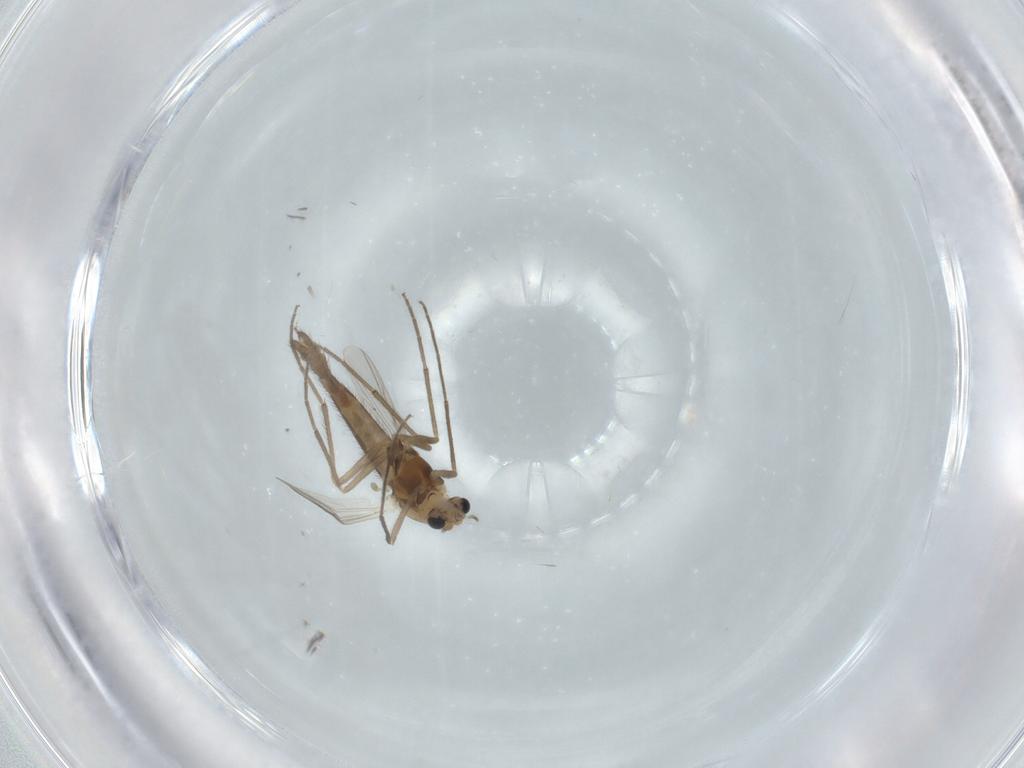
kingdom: Animalia
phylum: Arthropoda
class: Insecta
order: Diptera
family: Chironomidae
